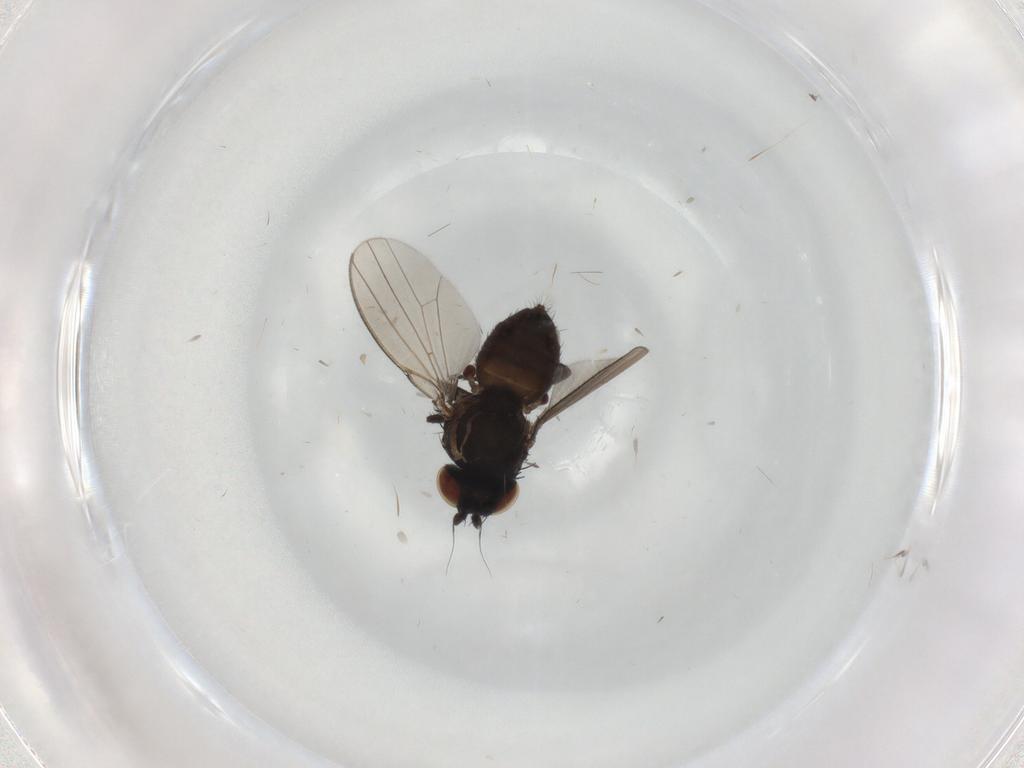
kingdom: Animalia
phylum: Arthropoda
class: Insecta
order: Diptera
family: Milichiidae
